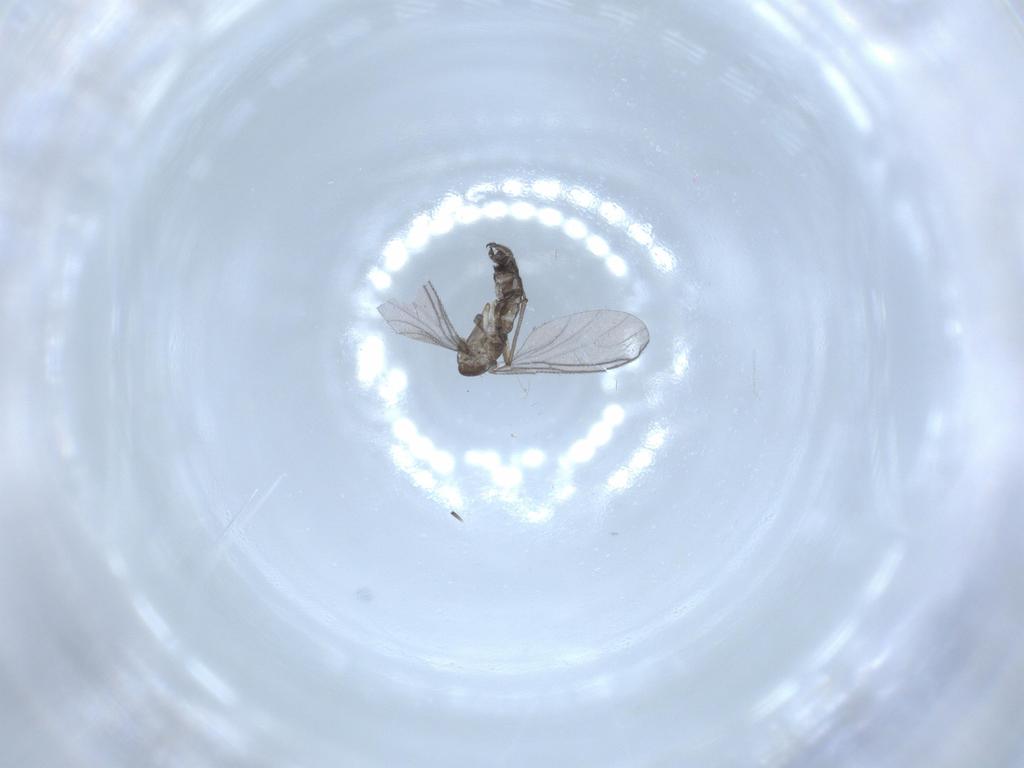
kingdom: Animalia
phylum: Arthropoda
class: Insecta
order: Diptera
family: Sciaridae
